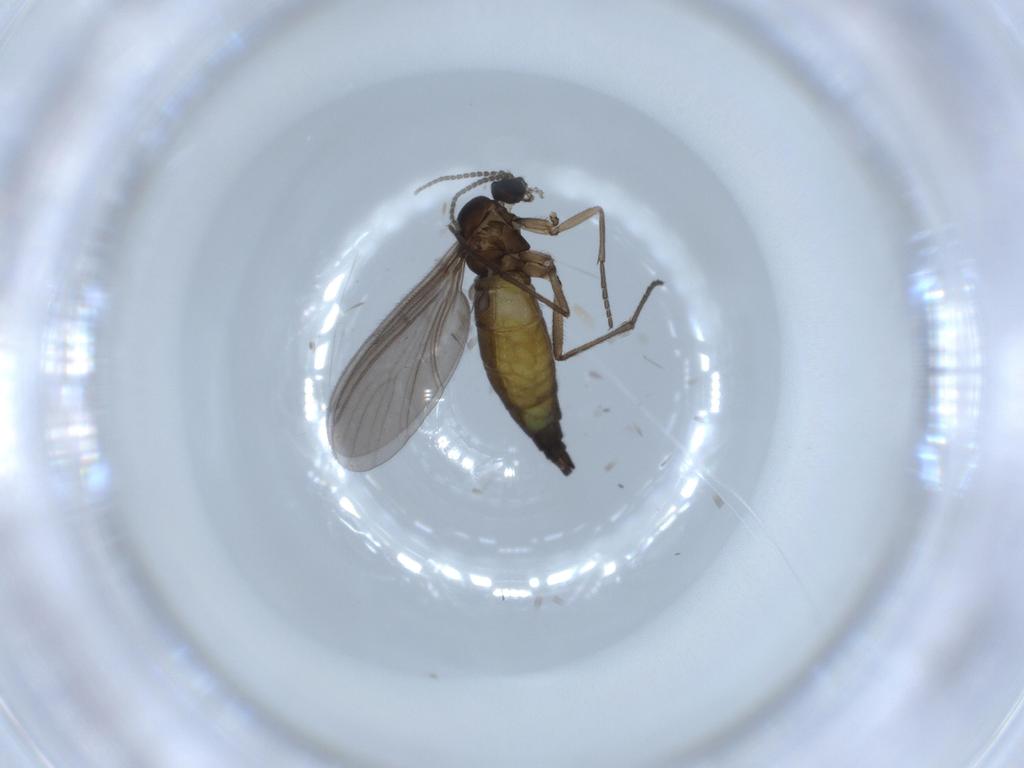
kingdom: Animalia
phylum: Arthropoda
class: Insecta
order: Diptera
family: Sciaridae
